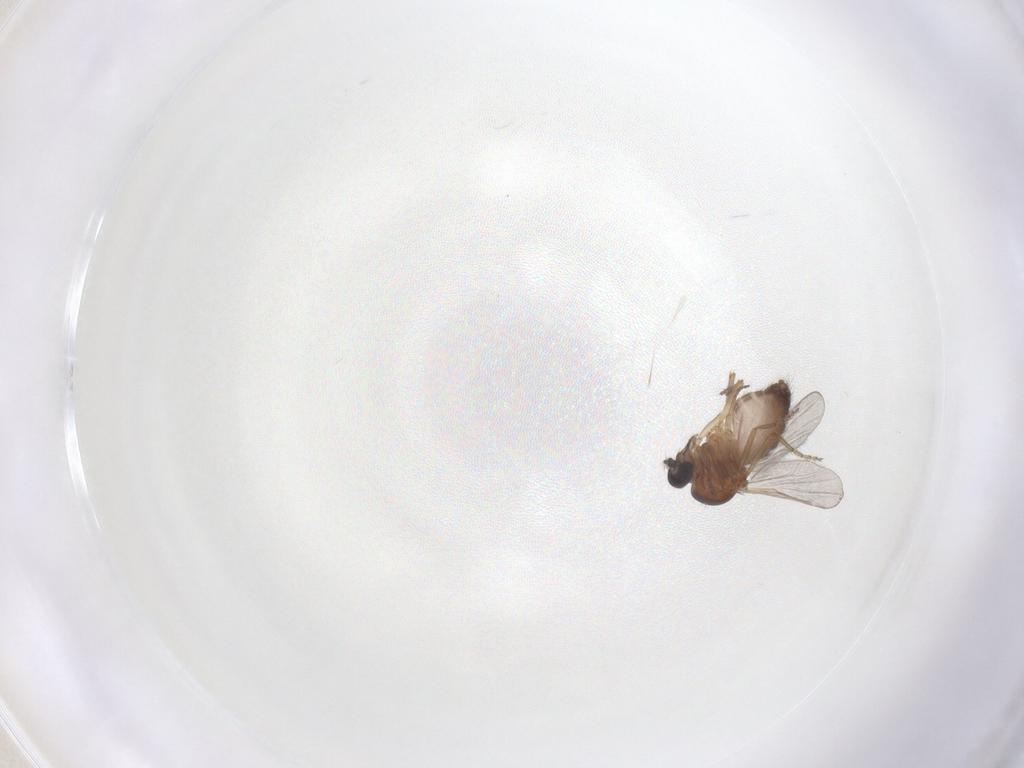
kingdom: Animalia
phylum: Arthropoda
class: Insecta
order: Diptera
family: Ceratopogonidae
